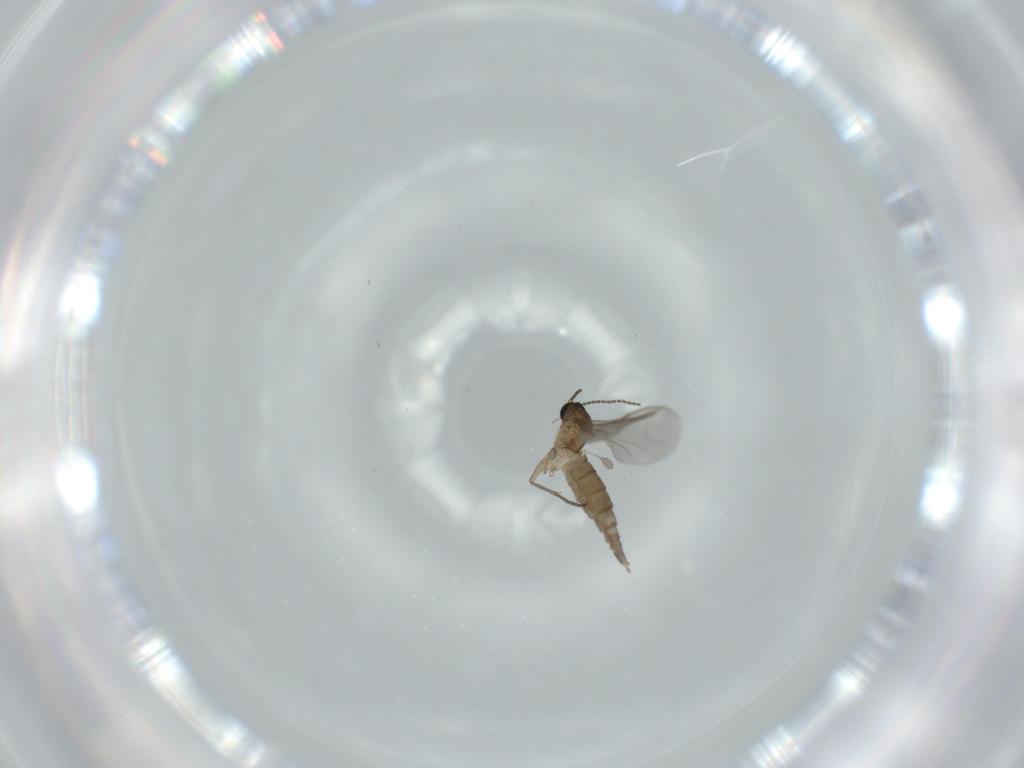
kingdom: Animalia
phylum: Arthropoda
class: Insecta
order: Diptera
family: Sciaridae
